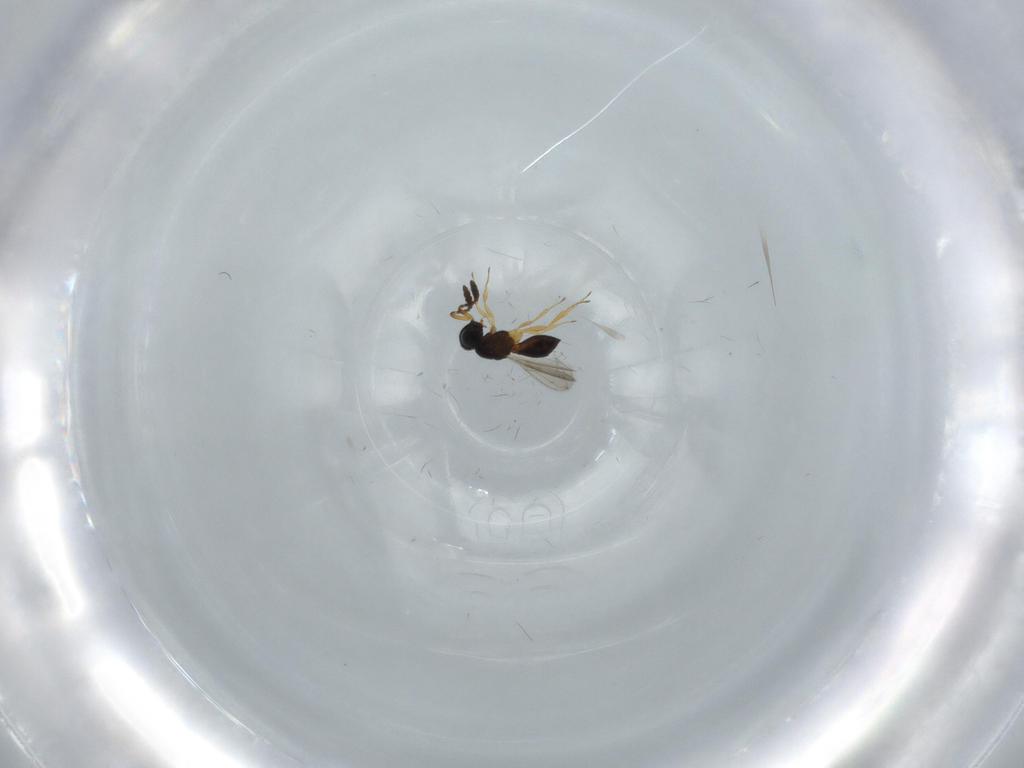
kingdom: Animalia
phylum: Arthropoda
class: Insecta
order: Hymenoptera
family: Scelionidae
